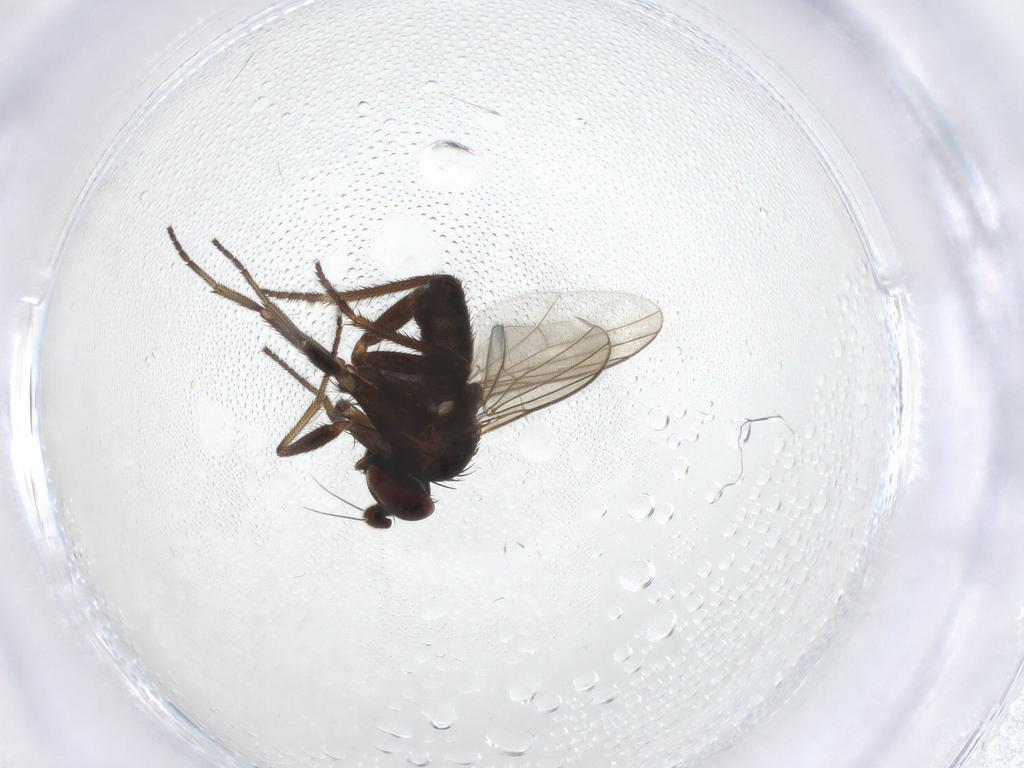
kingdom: Animalia
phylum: Arthropoda
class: Insecta
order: Diptera
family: Dolichopodidae
